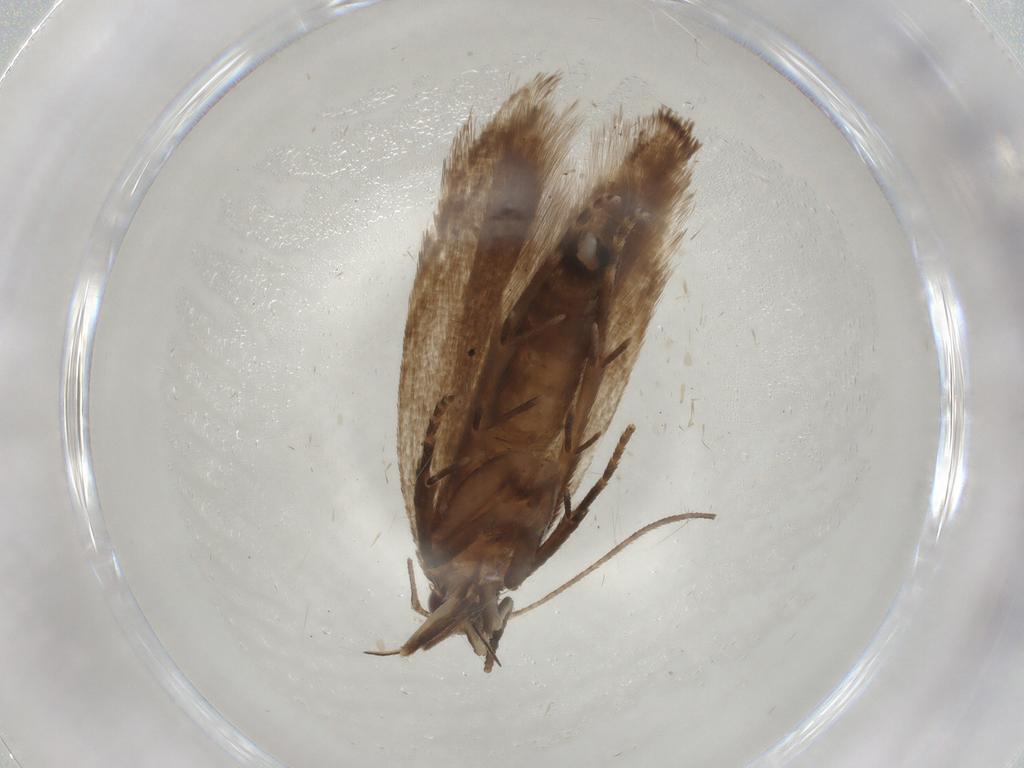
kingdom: Animalia
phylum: Arthropoda
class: Insecta
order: Lepidoptera
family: Gelechiidae
